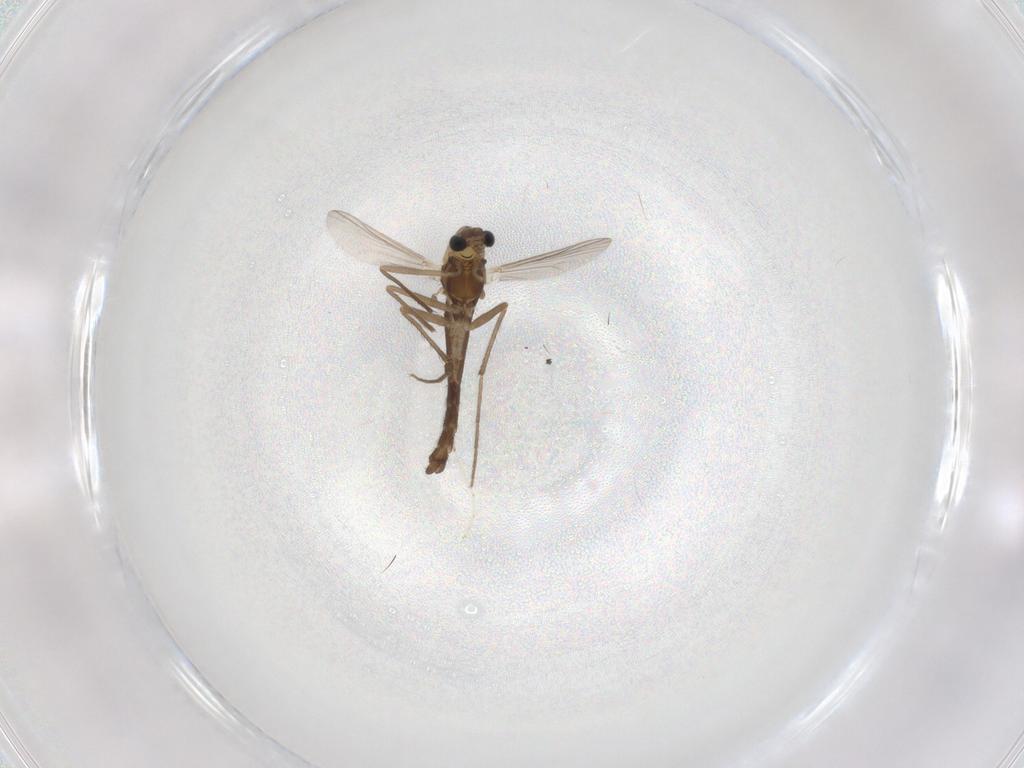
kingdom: Animalia
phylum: Arthropoda
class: Insecta
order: Diptera
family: Chironomidae
